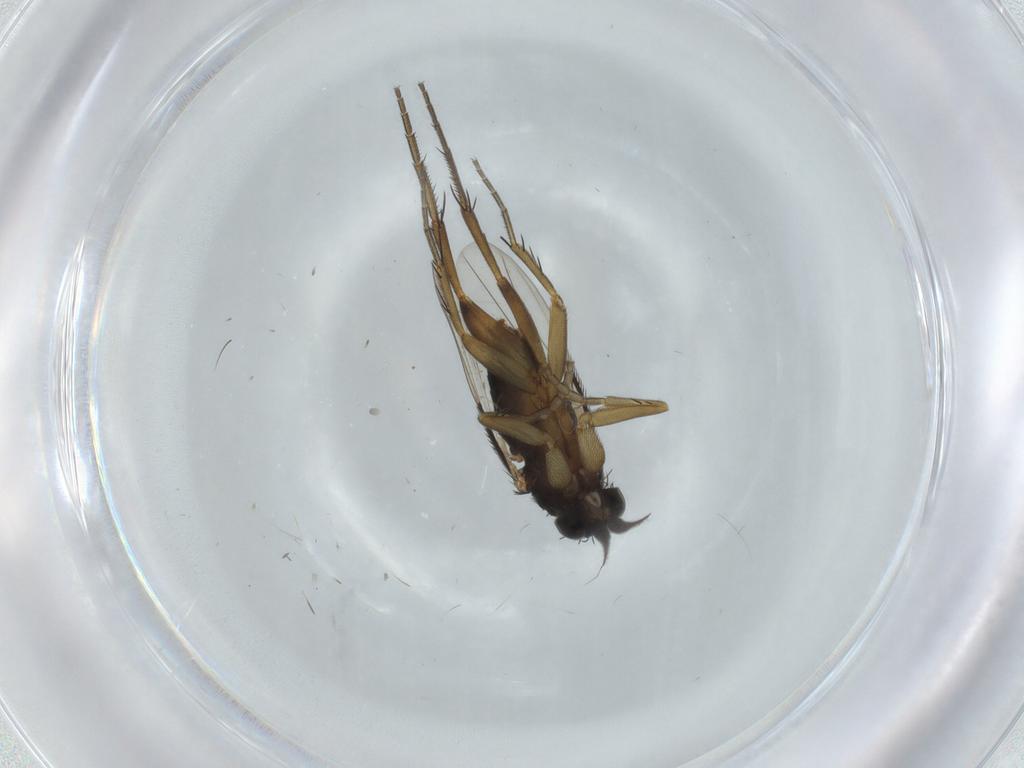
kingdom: Animalia
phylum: Arthropoda
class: Insecta
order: Diptera
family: Phoridae
